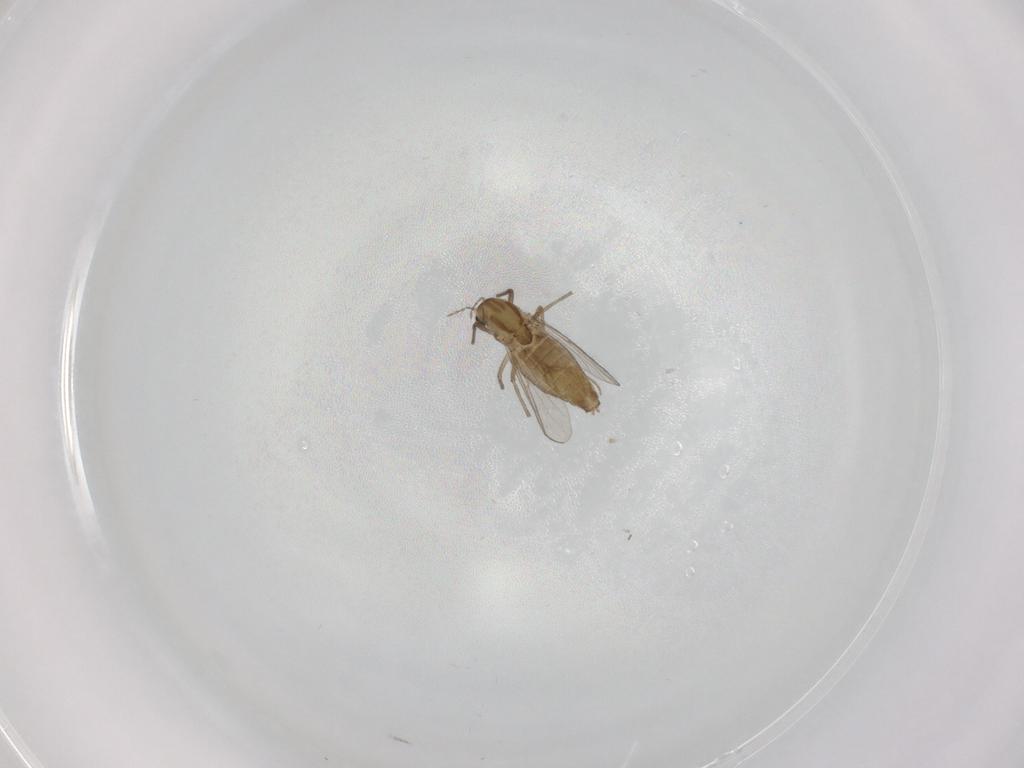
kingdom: Animalia
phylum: Arthropoda
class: Insecta
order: Diptera
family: Chironomidae
